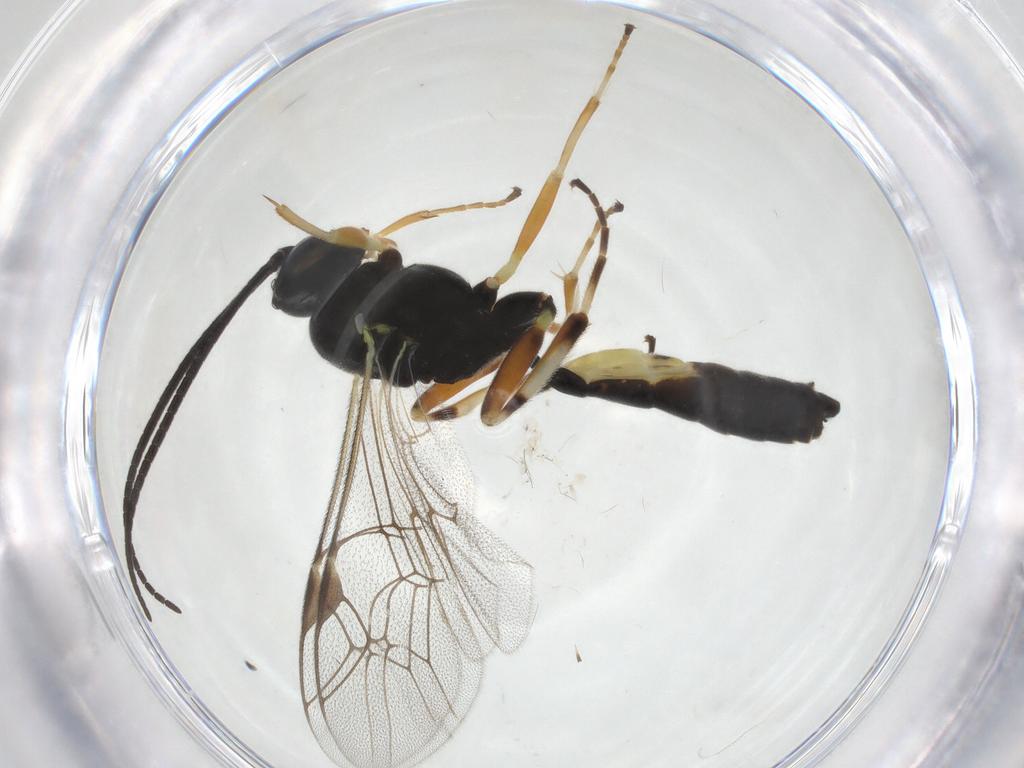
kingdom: Animalia
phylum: Arthropoda
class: Insecta
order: Hymenoptera
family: Ichneumonidae
